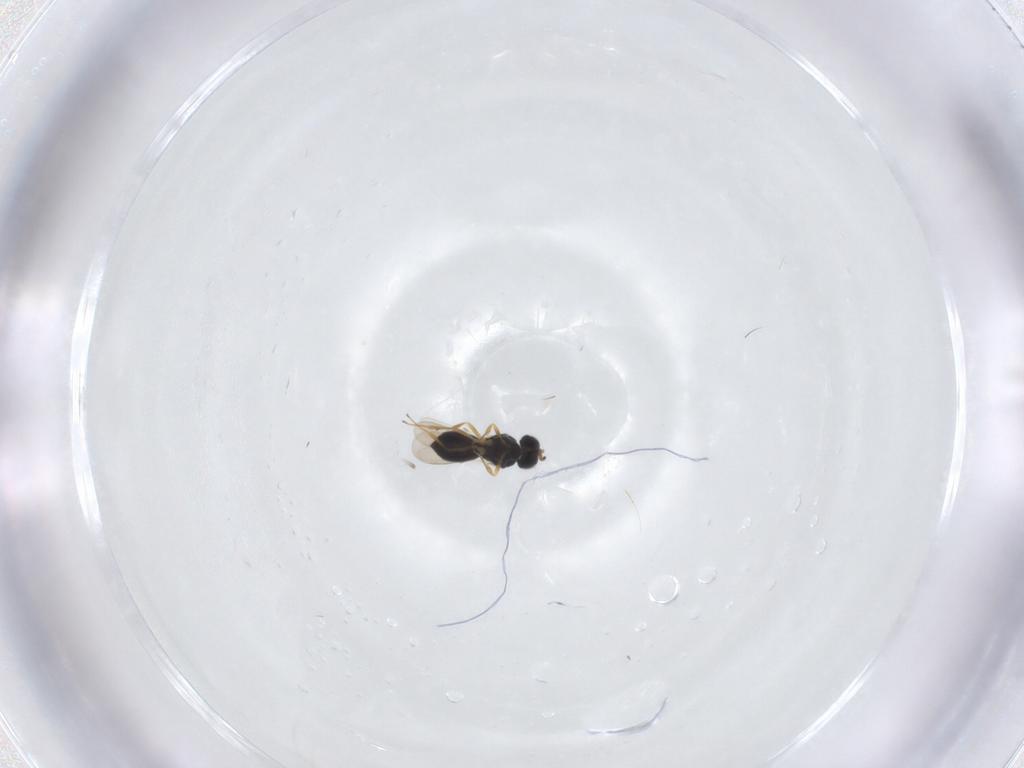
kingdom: Animalia
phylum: Arthropoda
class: Insecta
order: Hymenoptera
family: Scelionidae
